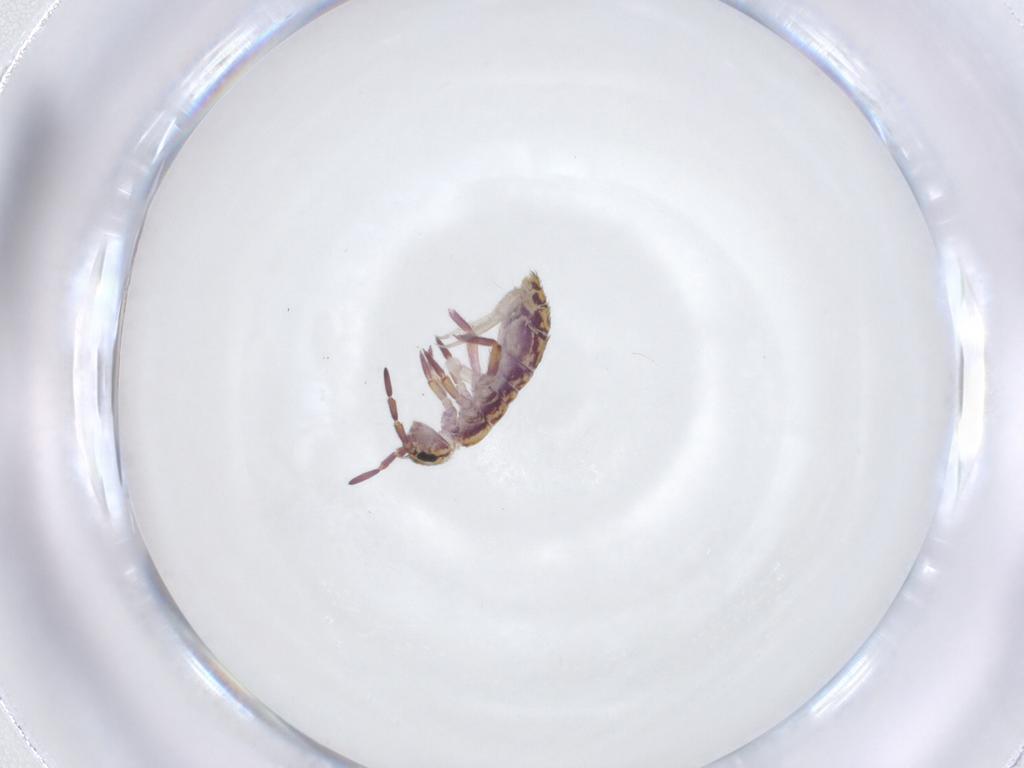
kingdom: Animalia
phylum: Arthropoda
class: Collembola
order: Entomobryomorpha
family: Isotomidae
